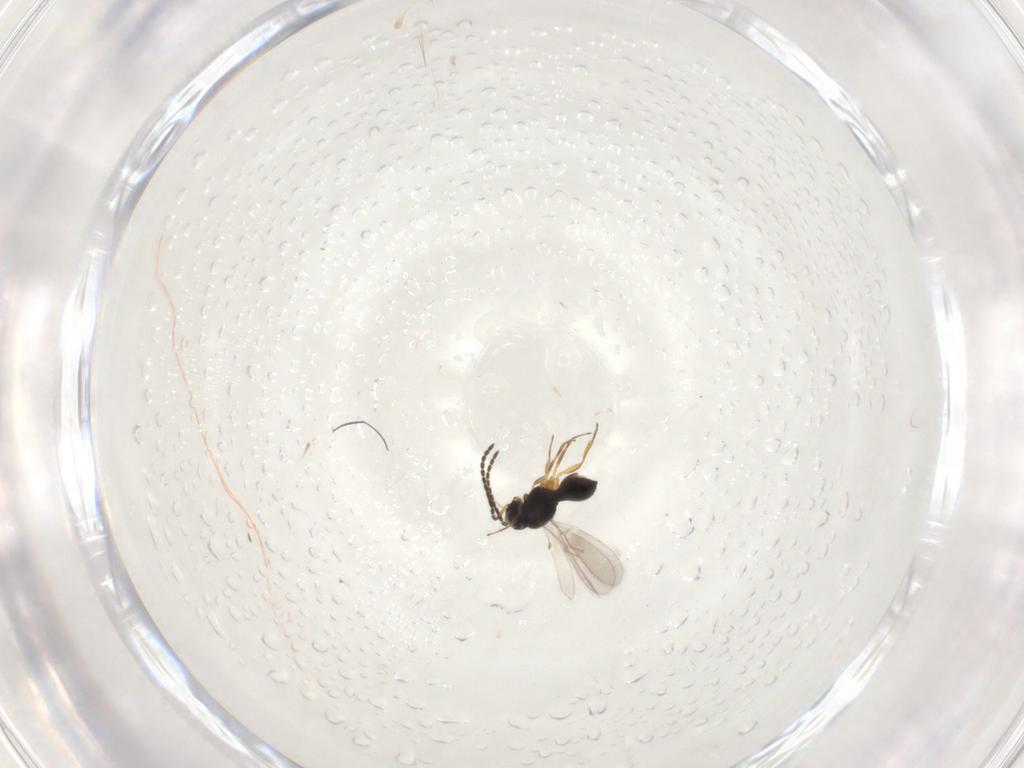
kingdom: Animalia
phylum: Arthropoda
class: Insecta
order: Hymenoptera
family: Scelionidae
